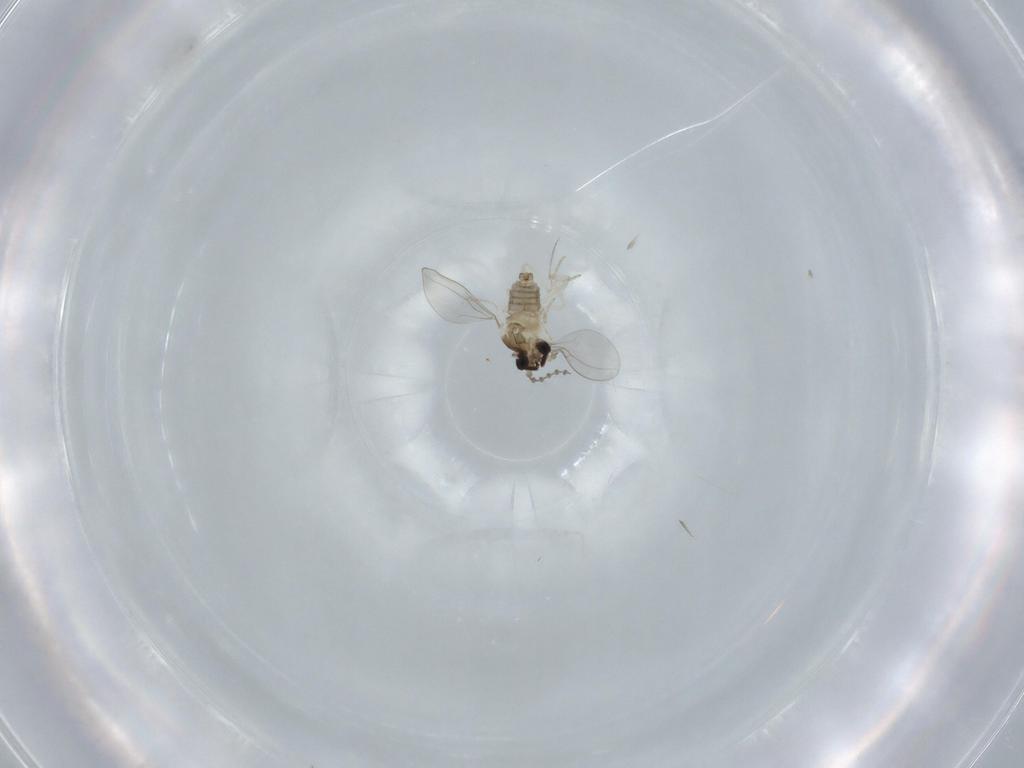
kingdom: Animalia
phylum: Arthropoda
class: Insecta
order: Diptera
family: Cecidomyiidae
